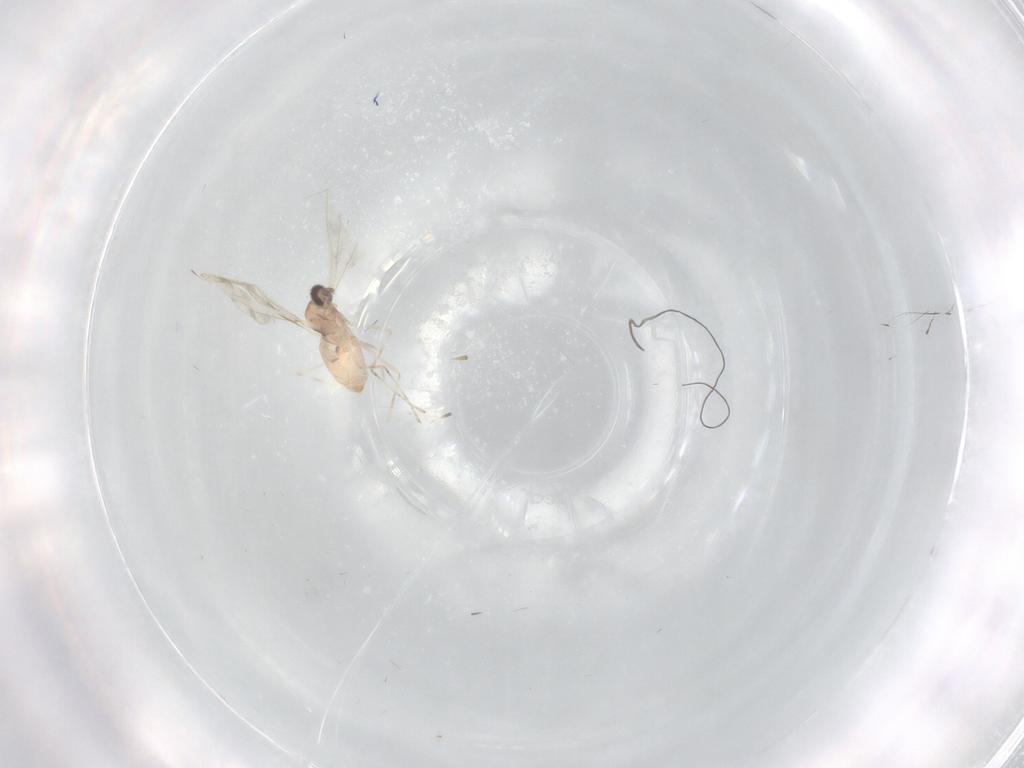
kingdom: Animalia
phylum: Arthropoda
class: Insecta
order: Diptera
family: Cecidomyiidae
